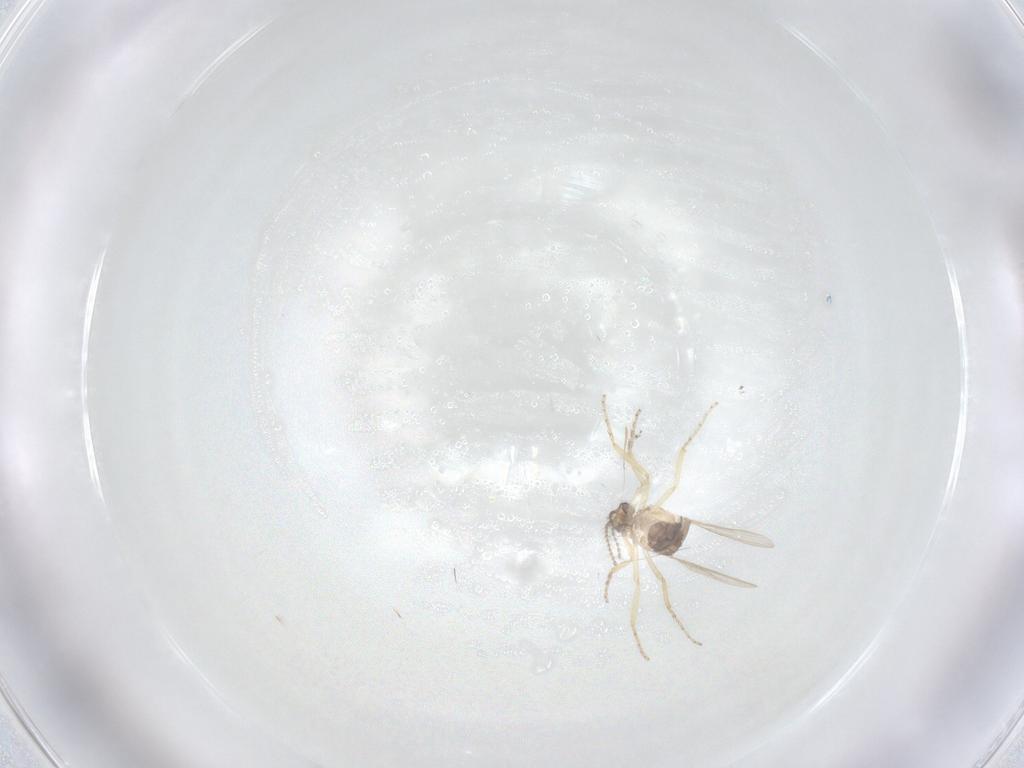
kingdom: Animalia
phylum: Arthropoda
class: Insecta
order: Diptera
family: Ceratopogonidae
